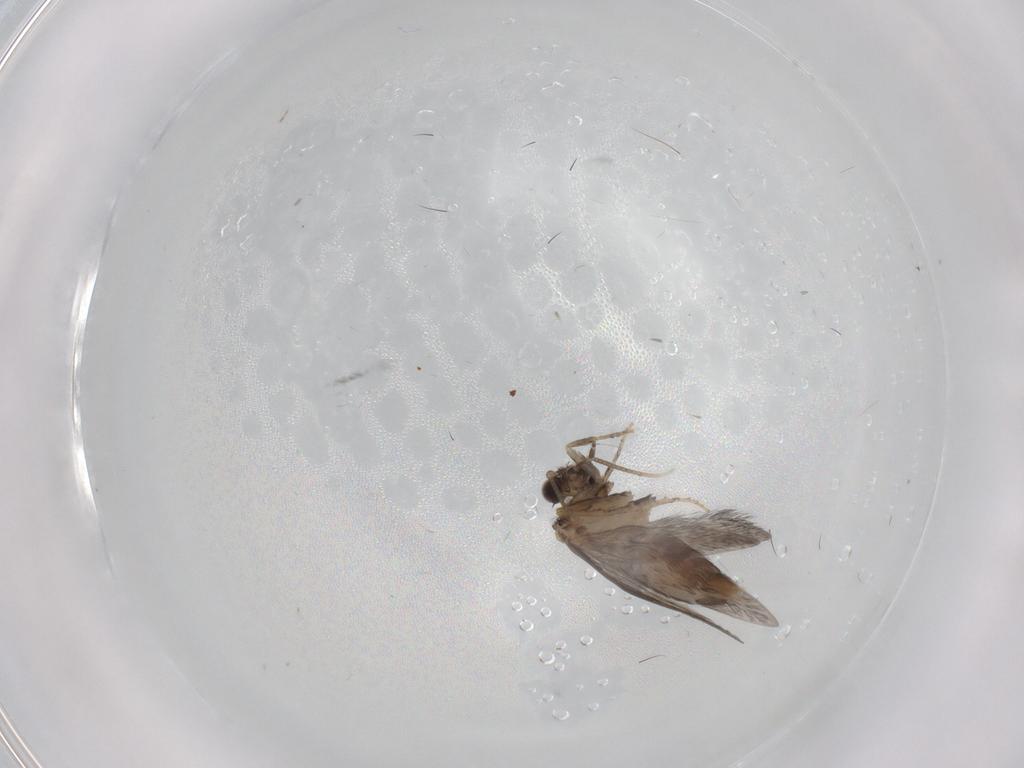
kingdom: Animalia
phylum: Arthropoda
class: Insecta
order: Trichoptera
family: Hydroptilidae
